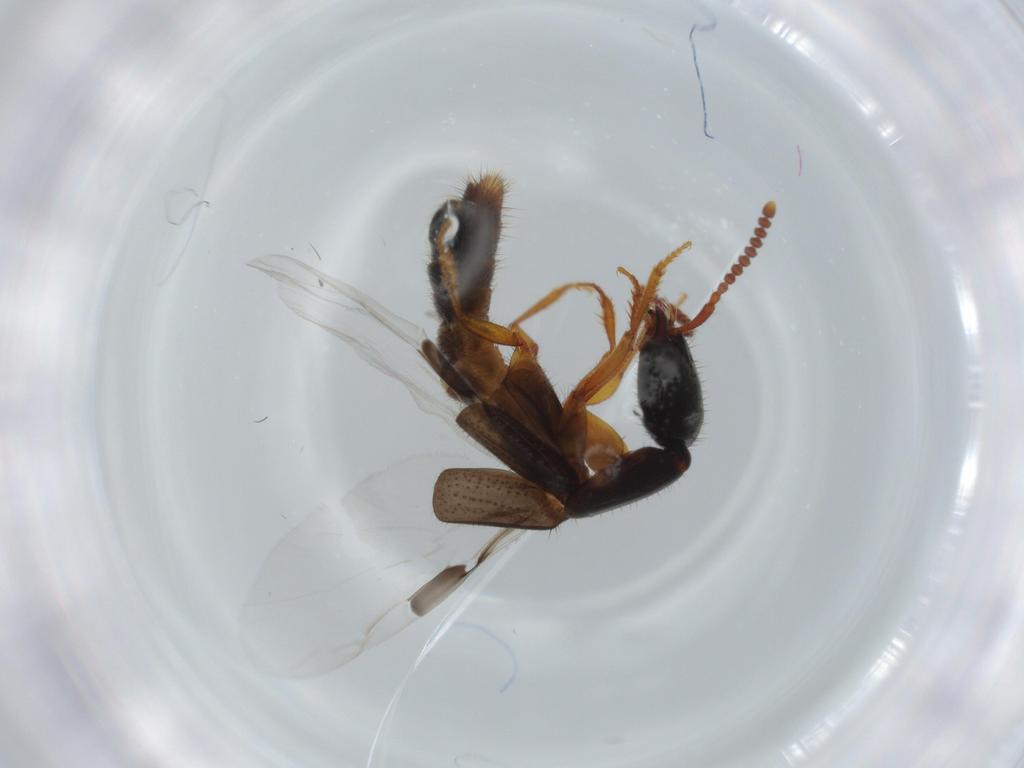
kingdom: Animalia
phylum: Arthropoda
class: Insecta
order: Coleoptera
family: Staphylinidae
